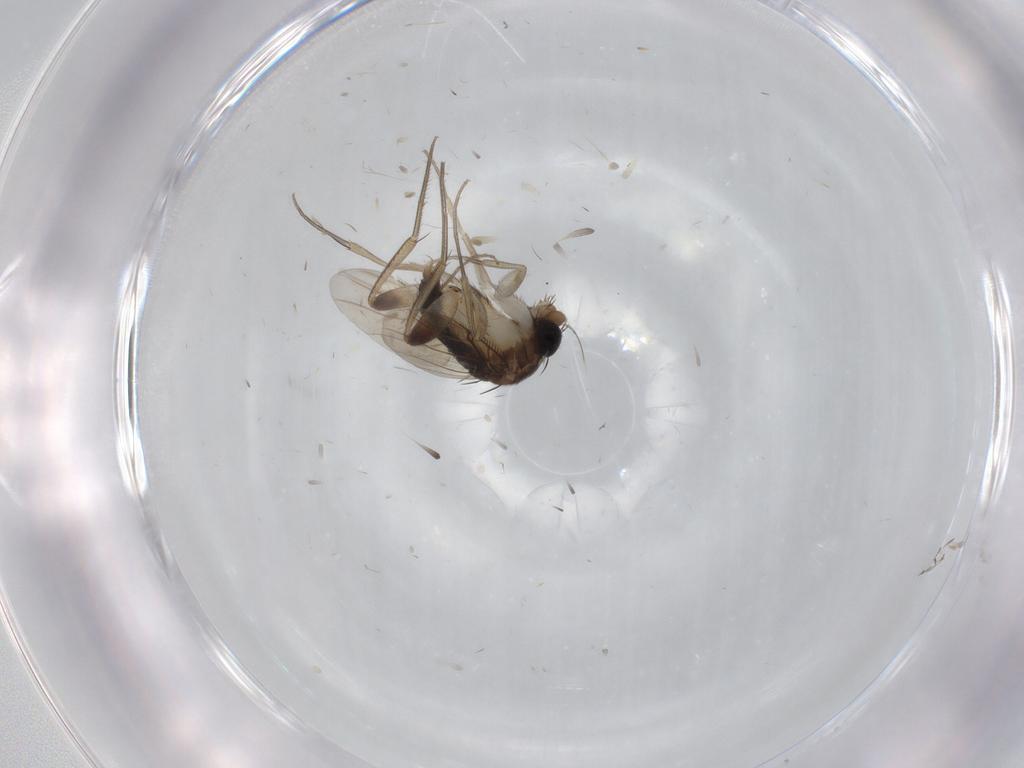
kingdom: Animalia
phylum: Arthropoda
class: Insecta
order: Diptera
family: Phoridae
